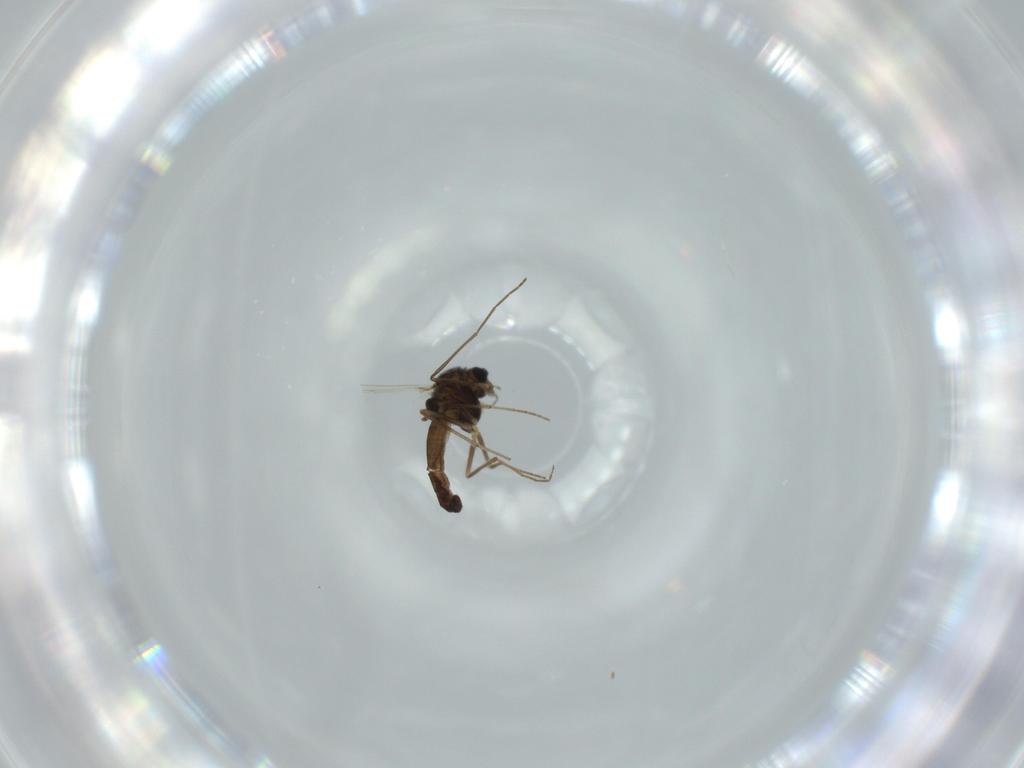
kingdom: Animalia
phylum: Arthropoda
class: Insecta
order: Diptera
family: Chironomidae
